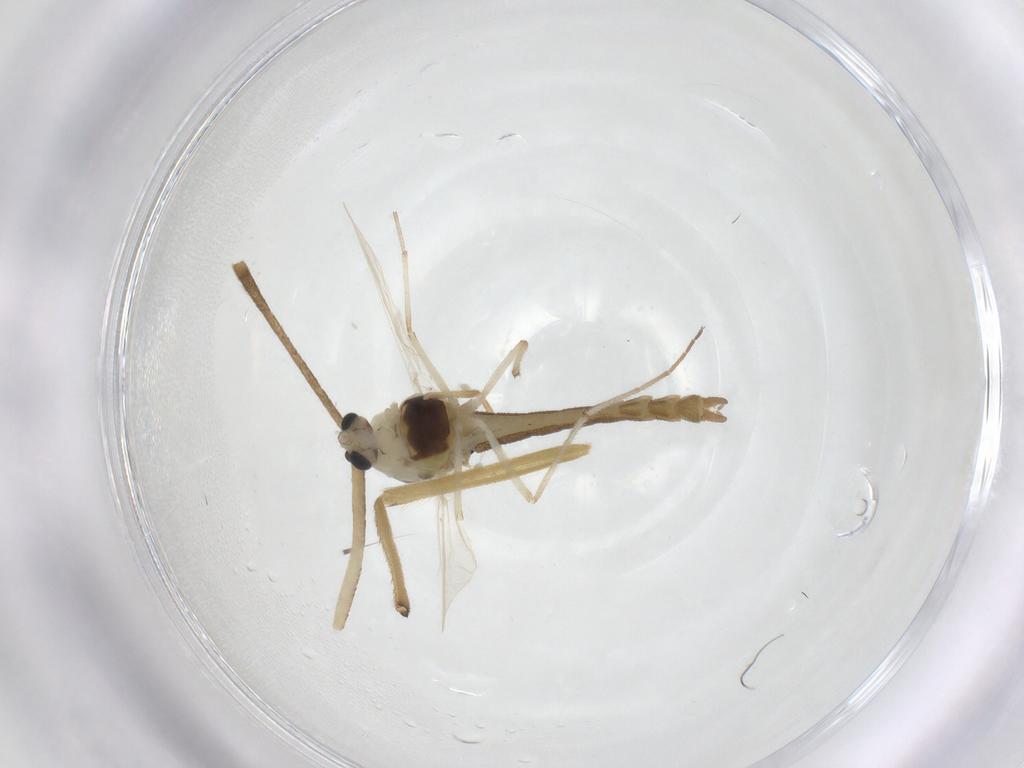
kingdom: Animalia
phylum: Arthropoda
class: Insecta
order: Diptera
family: Culicidae
